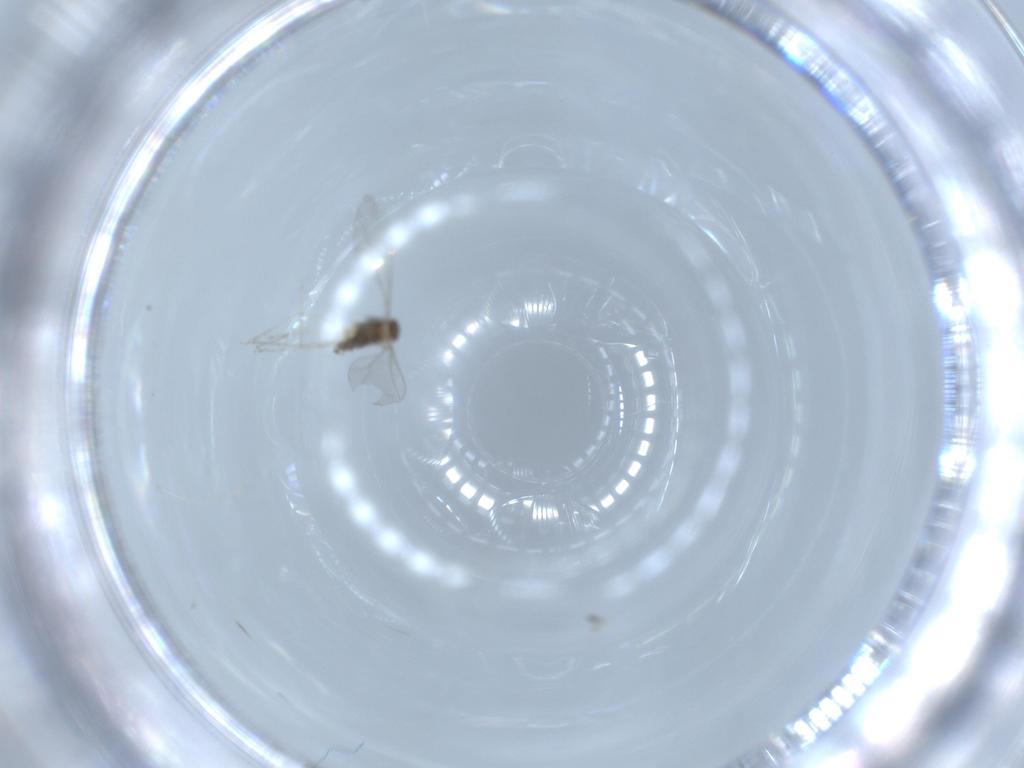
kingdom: Animalia
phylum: Arthropoda
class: Insecta
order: Diptera
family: Cecidomyiidae
